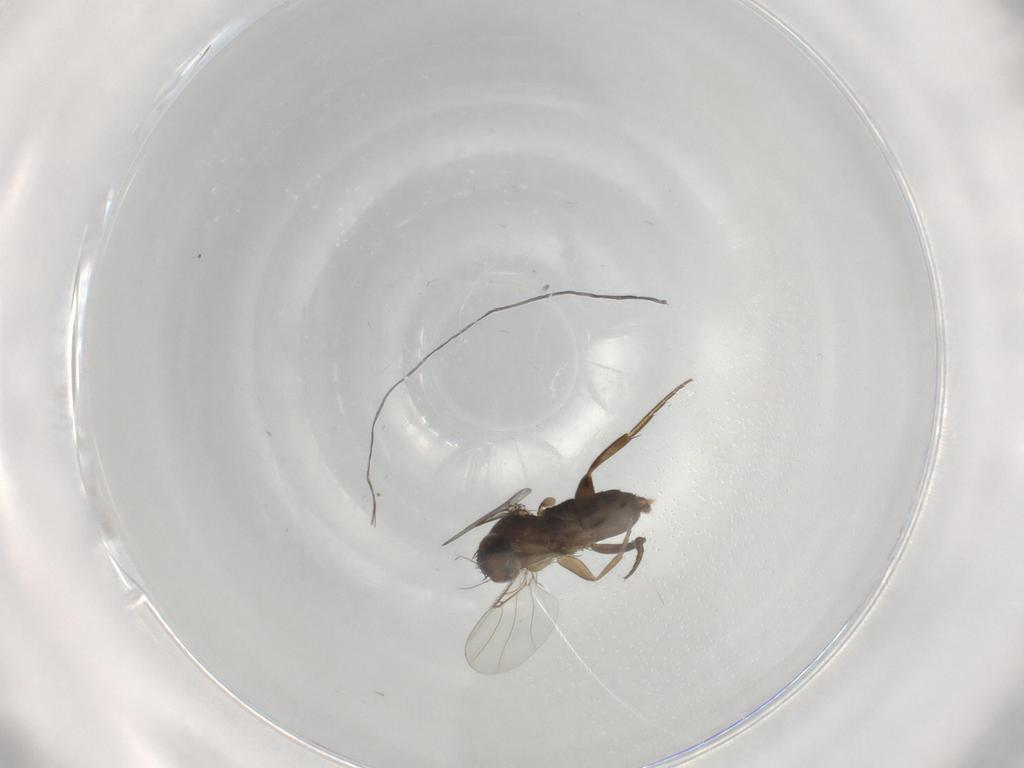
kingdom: Animalia
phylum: Arthropoda
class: Insecta
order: Diptera
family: Phoridae
